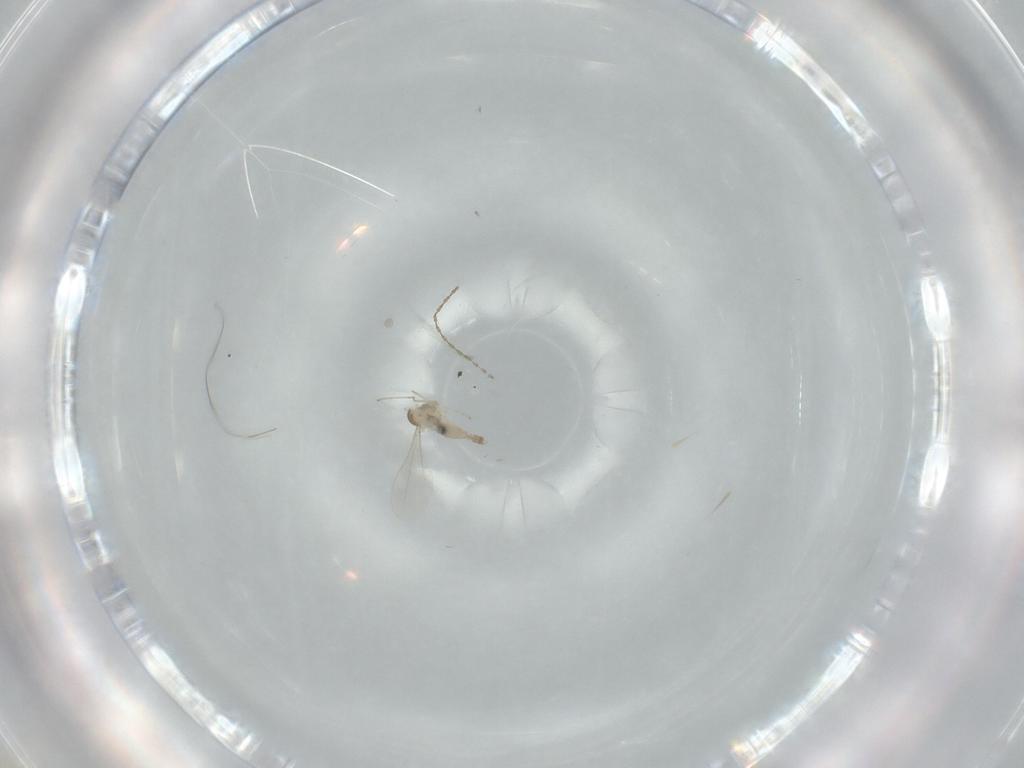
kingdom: Animalia
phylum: Arthropoda
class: Insecta
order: Diptera
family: Cecidomyiidae
